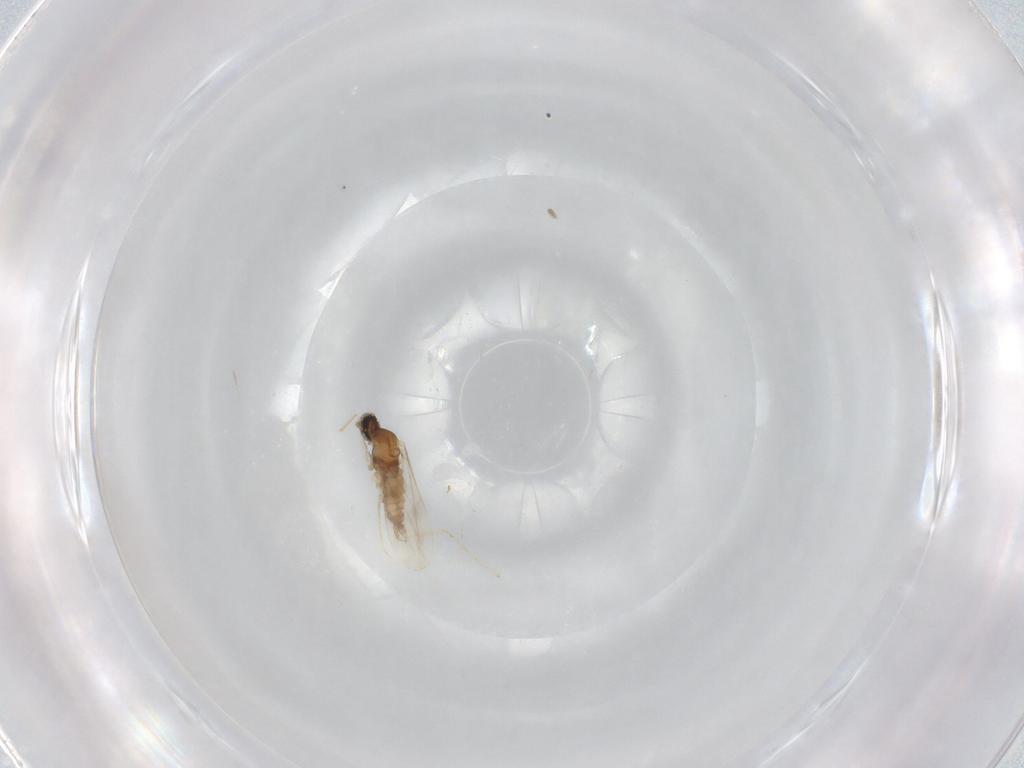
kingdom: Animalia
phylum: Arthropoda
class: Insecta
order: Diptera
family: Cecidomyiidae
